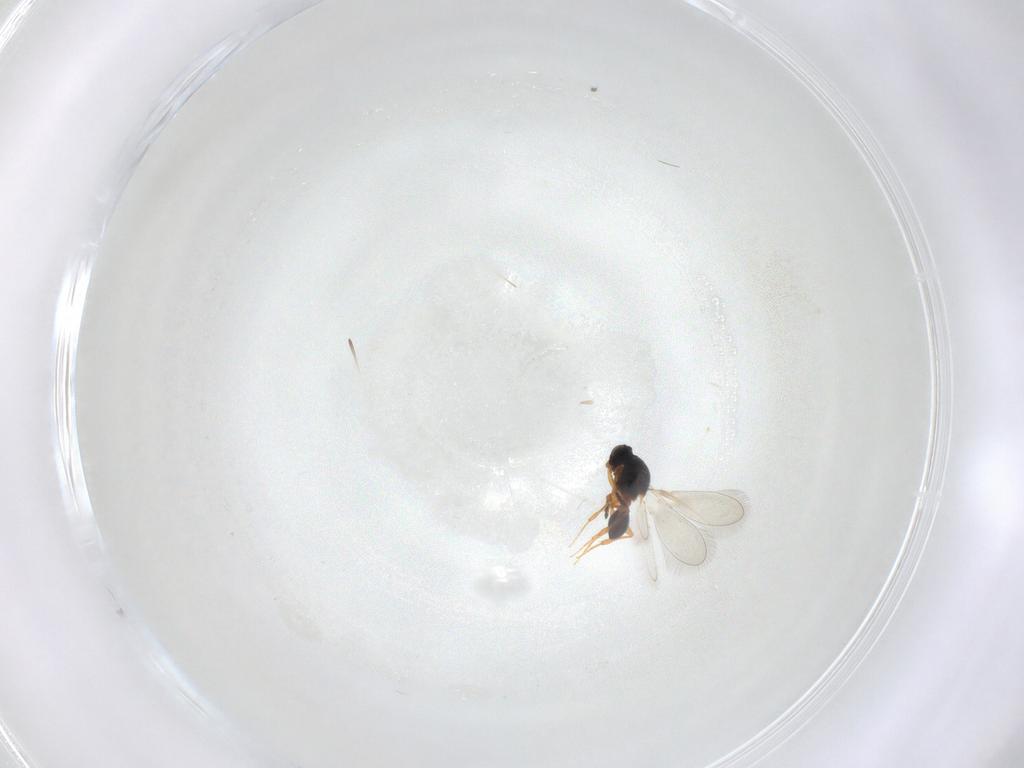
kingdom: Animalia
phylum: Arthropoda
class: Insecta
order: Hymenoptera
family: Platygastridae
